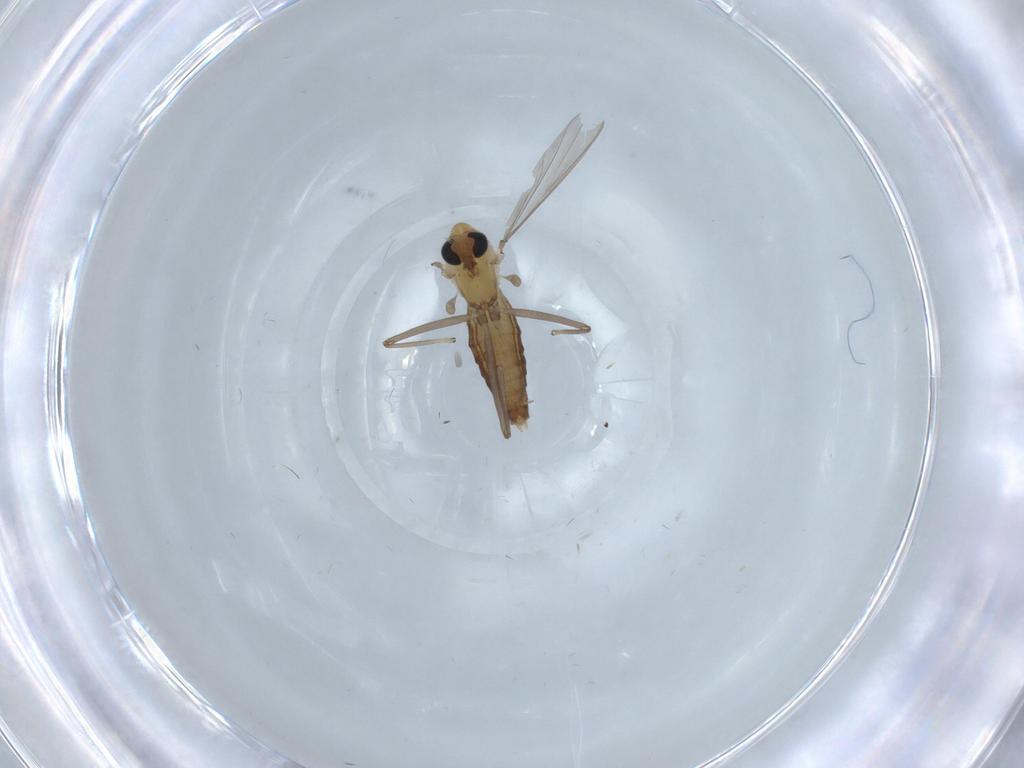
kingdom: Animalia
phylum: Arthropoda
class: Insecta
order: Diptera
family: Chironomidae
